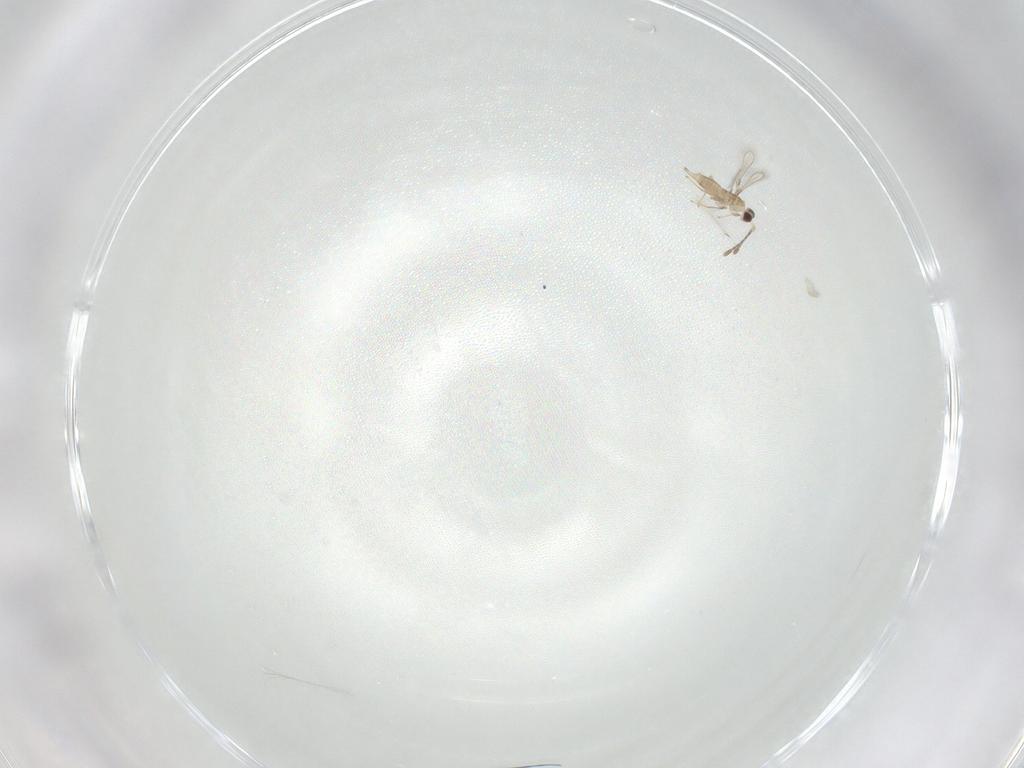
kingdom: Animalia
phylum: Arthropoda
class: Insecta
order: Hymenoptera
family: Mymaridae
